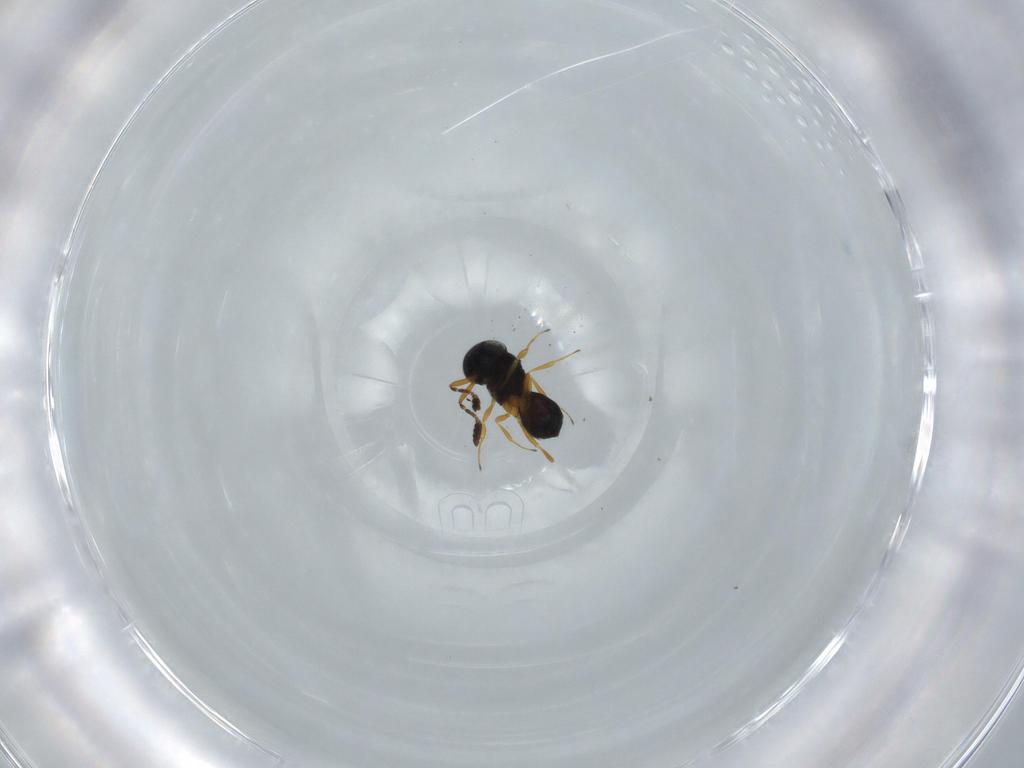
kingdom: Animalia
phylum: Arthropoda
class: Insecta
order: Hymenoptera
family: Scelionidae
